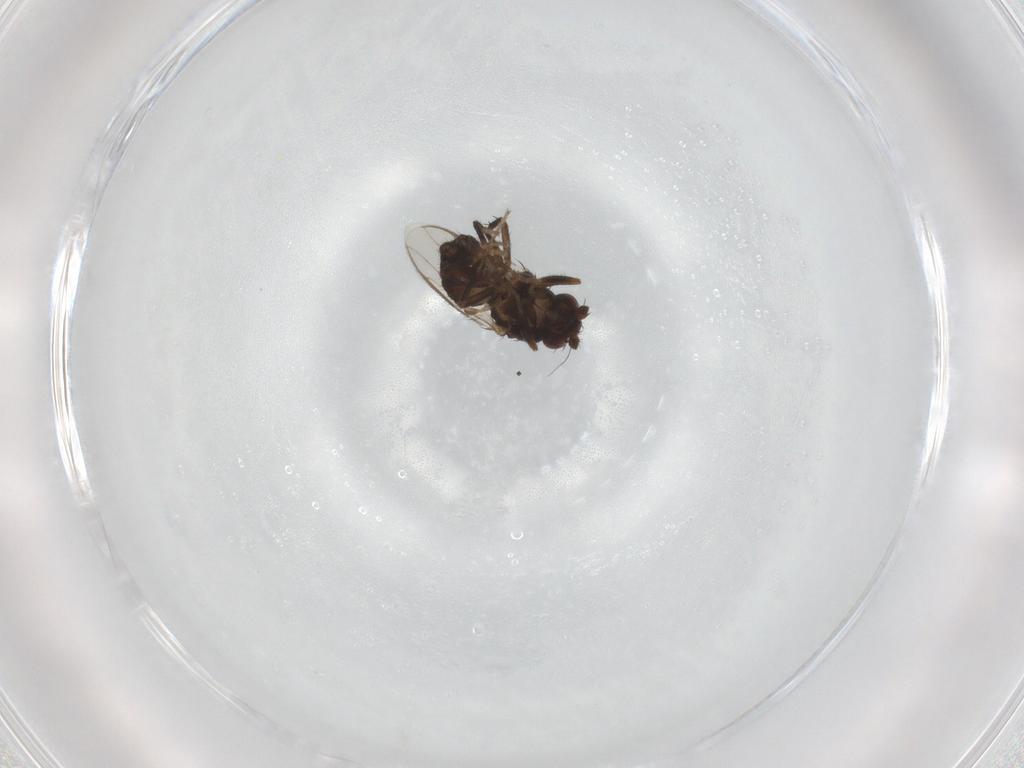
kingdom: Animalia
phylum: Arthropoda
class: Insecta
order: Diptera
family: Sphaeroceridae
